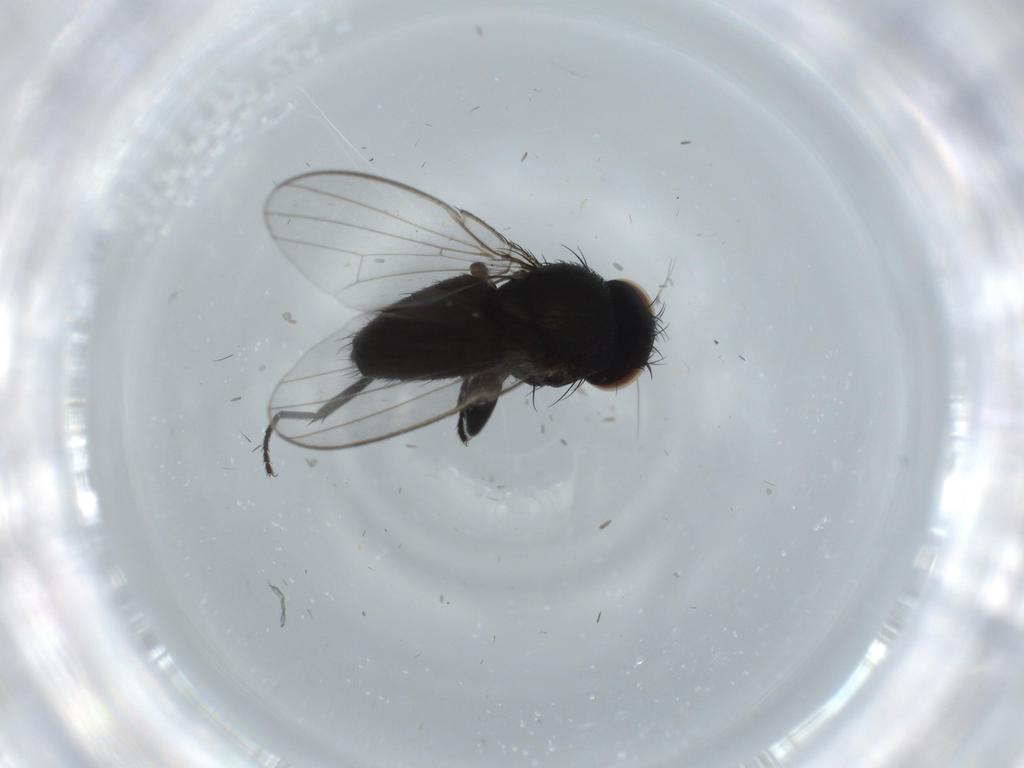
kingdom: Animalia
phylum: Arthropoda
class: Insecta
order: Diptera
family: Milichiidae
